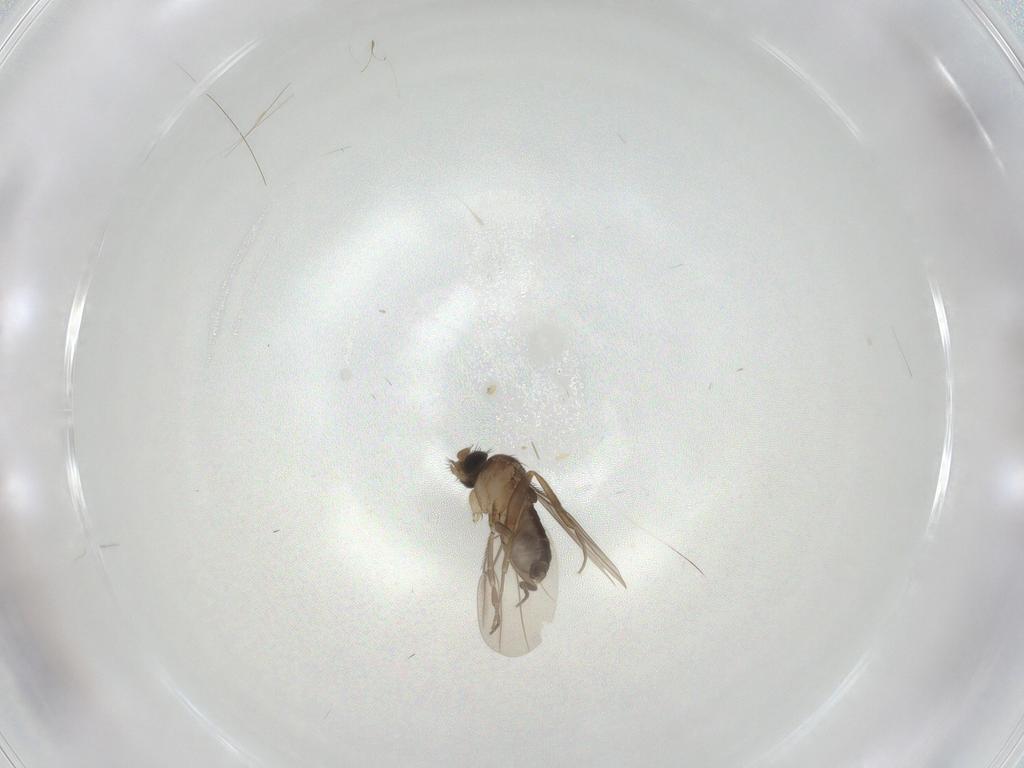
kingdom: Animalia
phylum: Arthropoda
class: Insecta
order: Diptera
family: Phoridae
